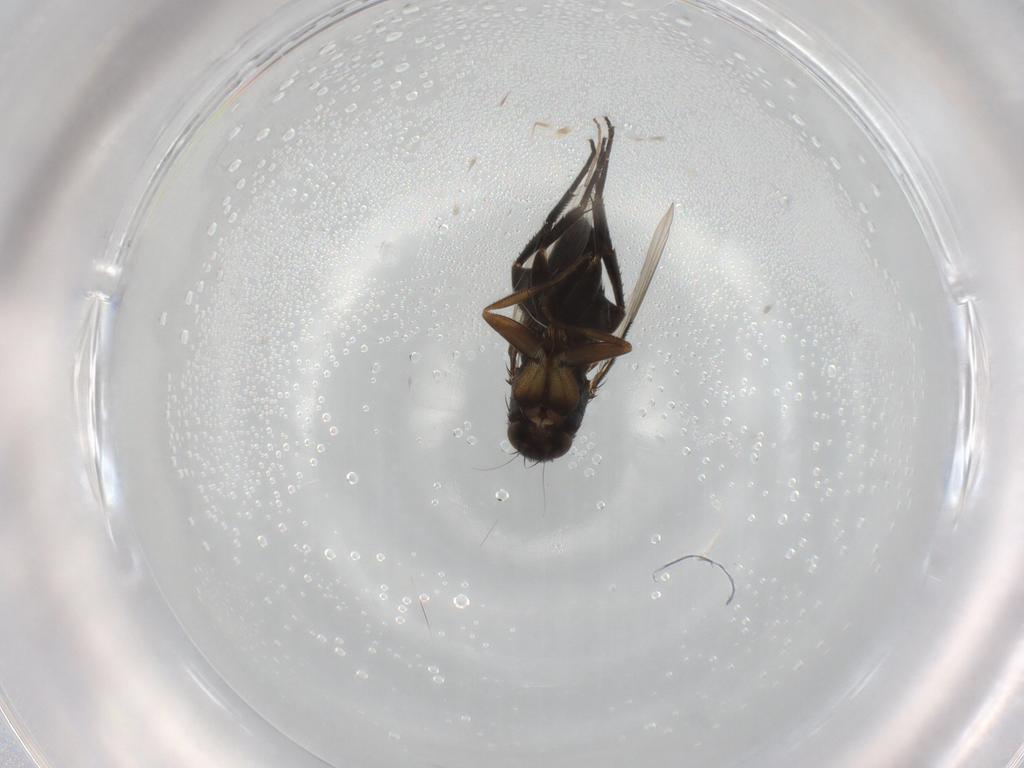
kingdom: Animalia
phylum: Arthropoda
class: Insecta
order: Diptera
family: Phoridae
